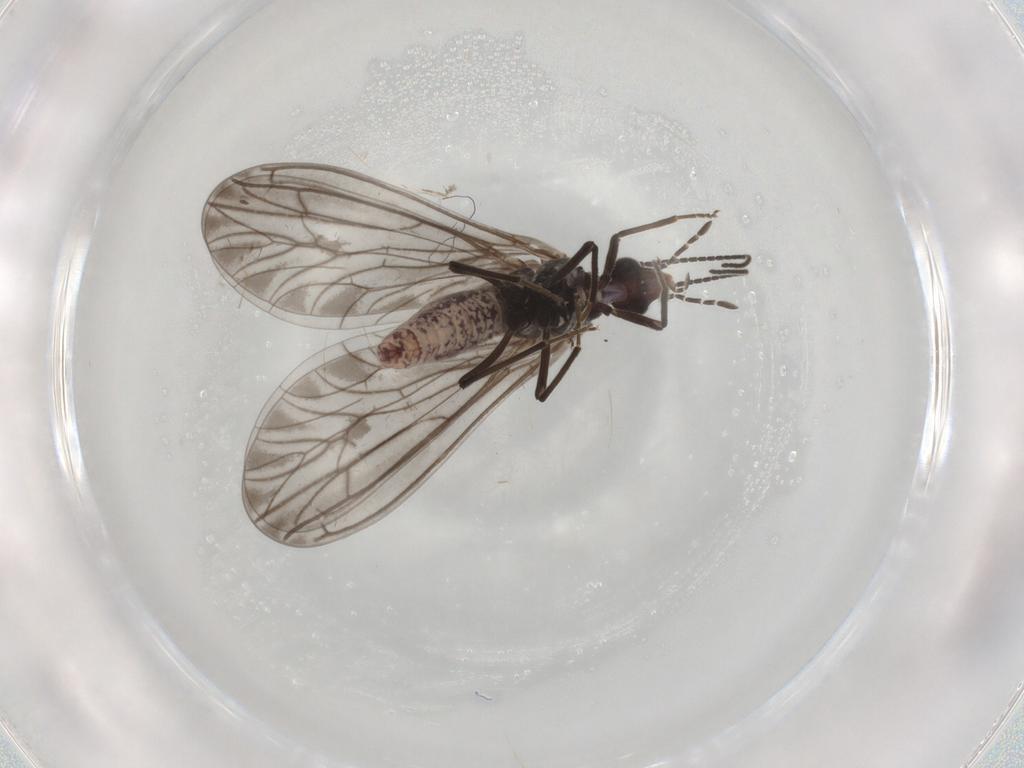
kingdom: Animalia
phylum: Arthropoda
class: Insecta
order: Neuroptera
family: Coniopterygidae
